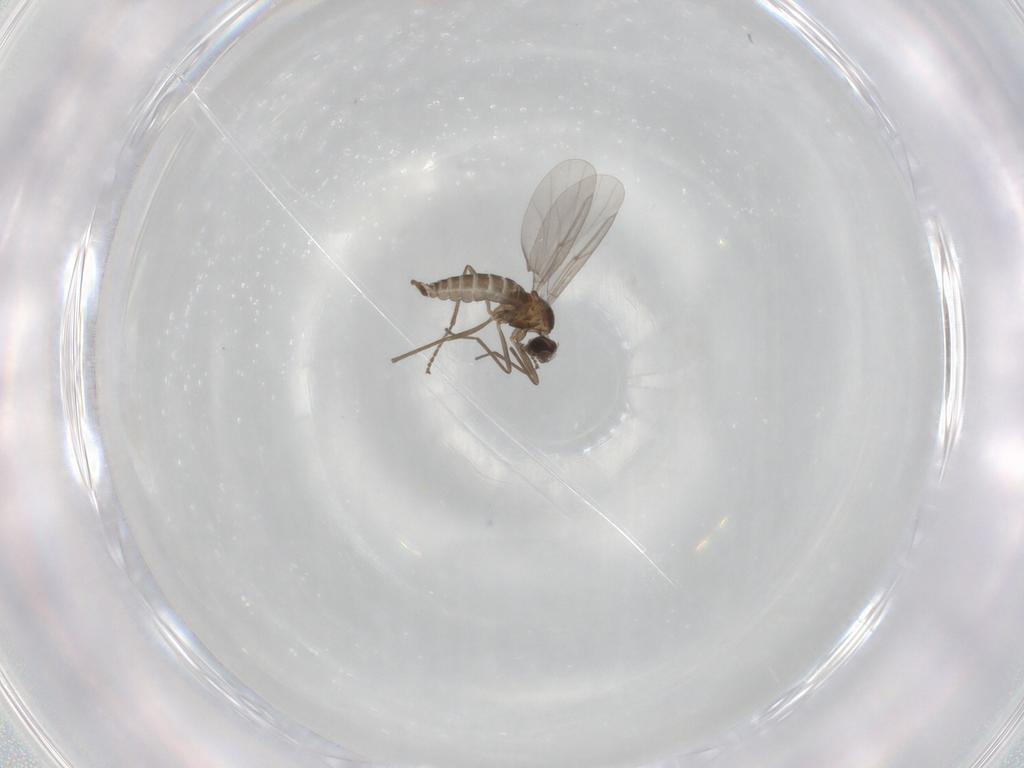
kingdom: Animalia
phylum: Arthropoda
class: Insecta
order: Diptera
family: Cecidomyiidae
